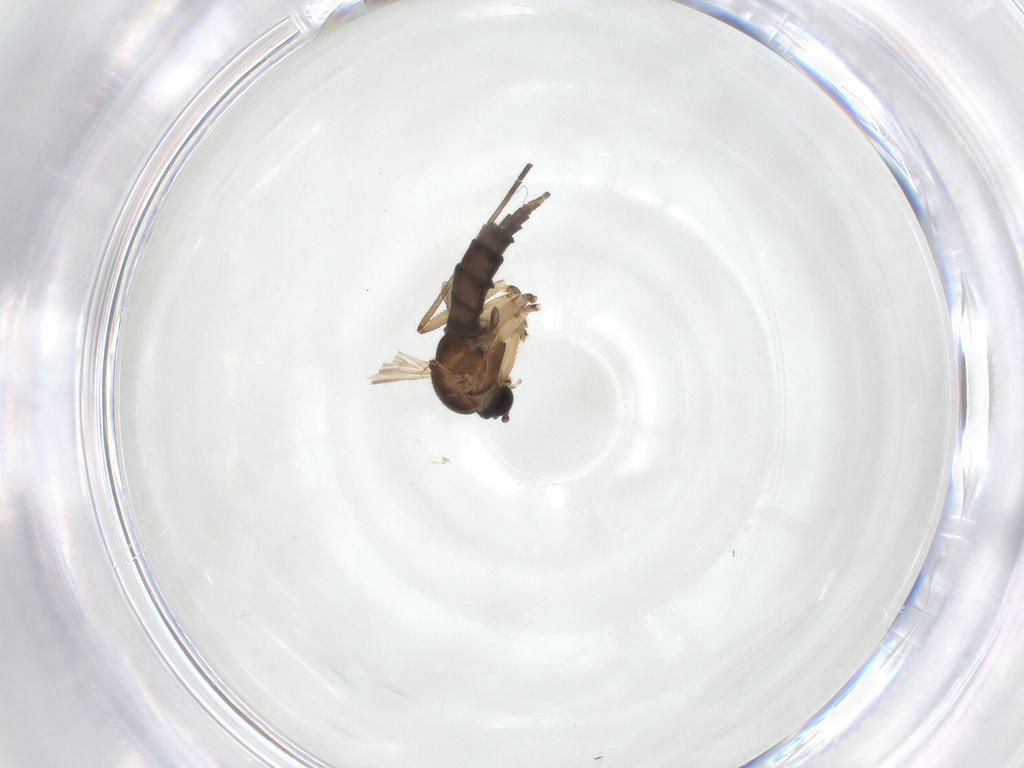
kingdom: Animalia
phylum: Arthropoda
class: Insecta
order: Diptera
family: Sciaridae
